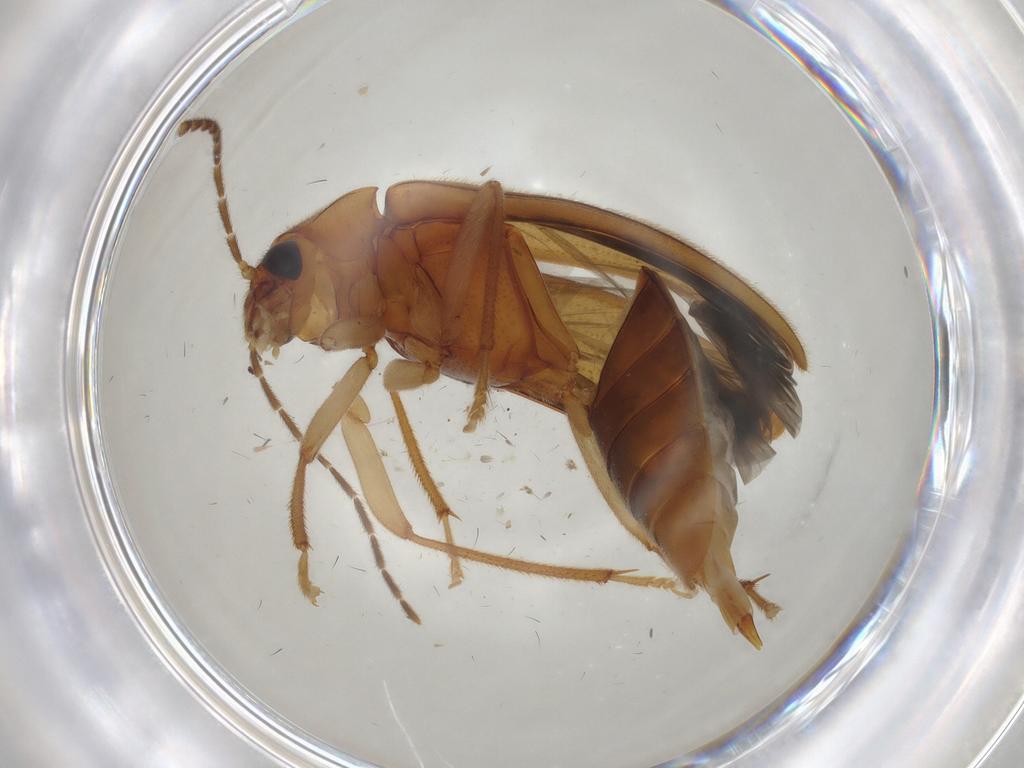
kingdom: Animalia
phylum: Arthropoda
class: Insecta
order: Coleoptera
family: Ptilodactylidae
